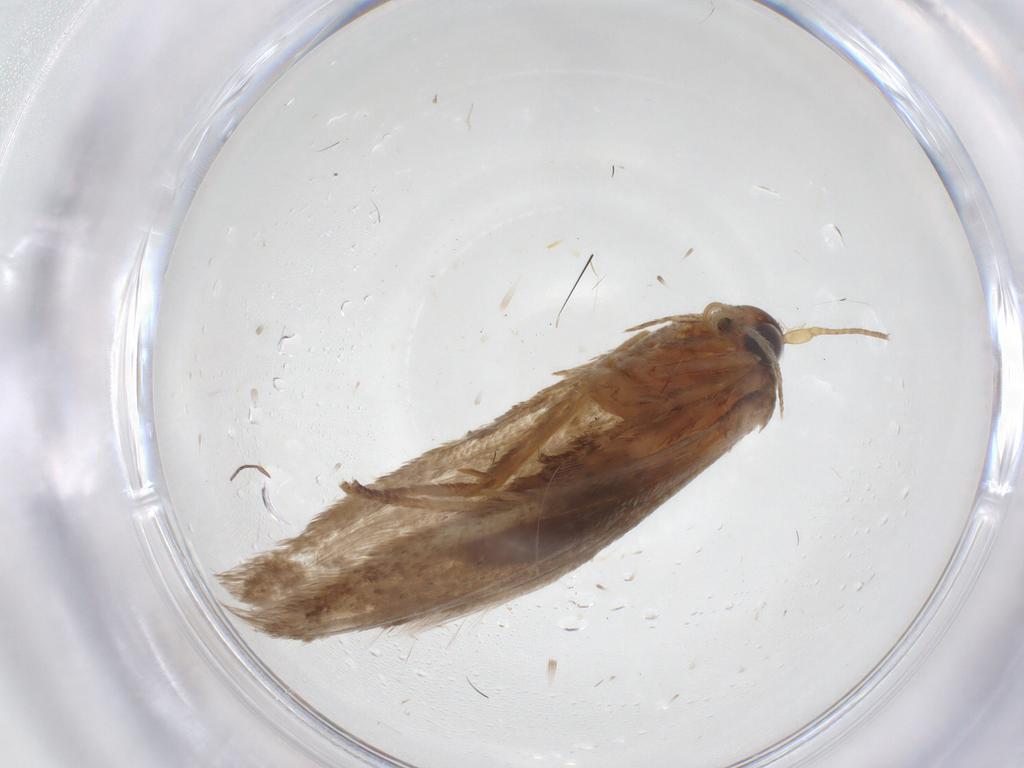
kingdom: Animalia
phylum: Arthropoda
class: Insecta
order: Lepidoptera
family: Blastobasidae
